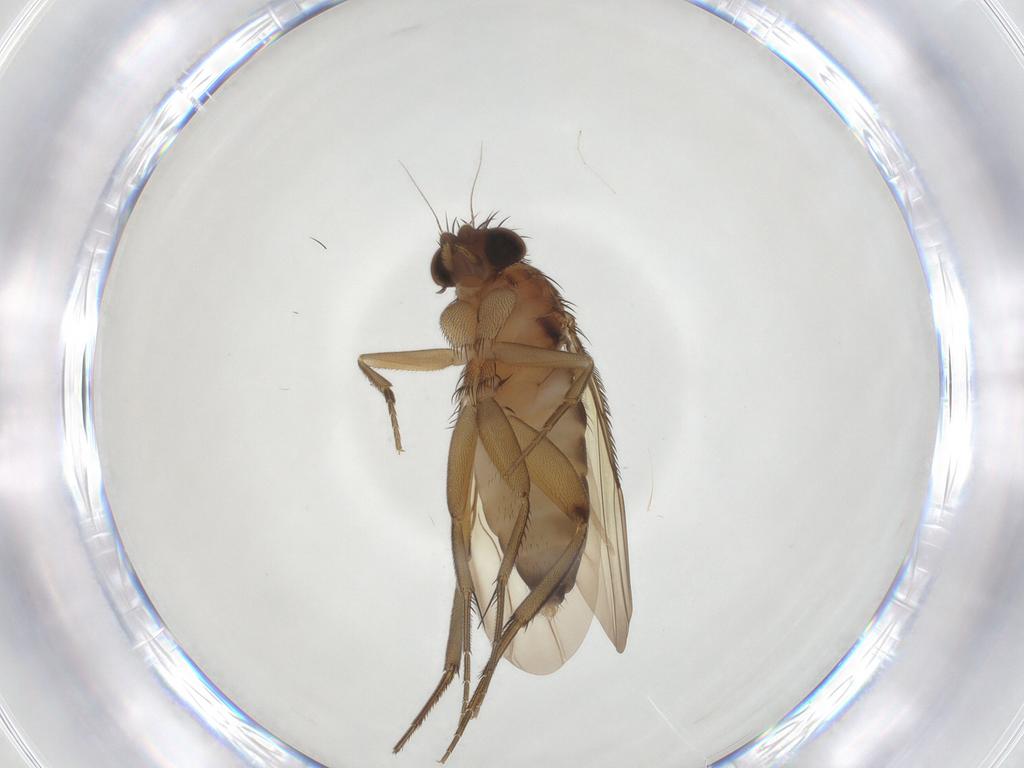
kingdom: Animalia
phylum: Arthropoda
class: Insecta
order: Diptera
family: Phoridae
